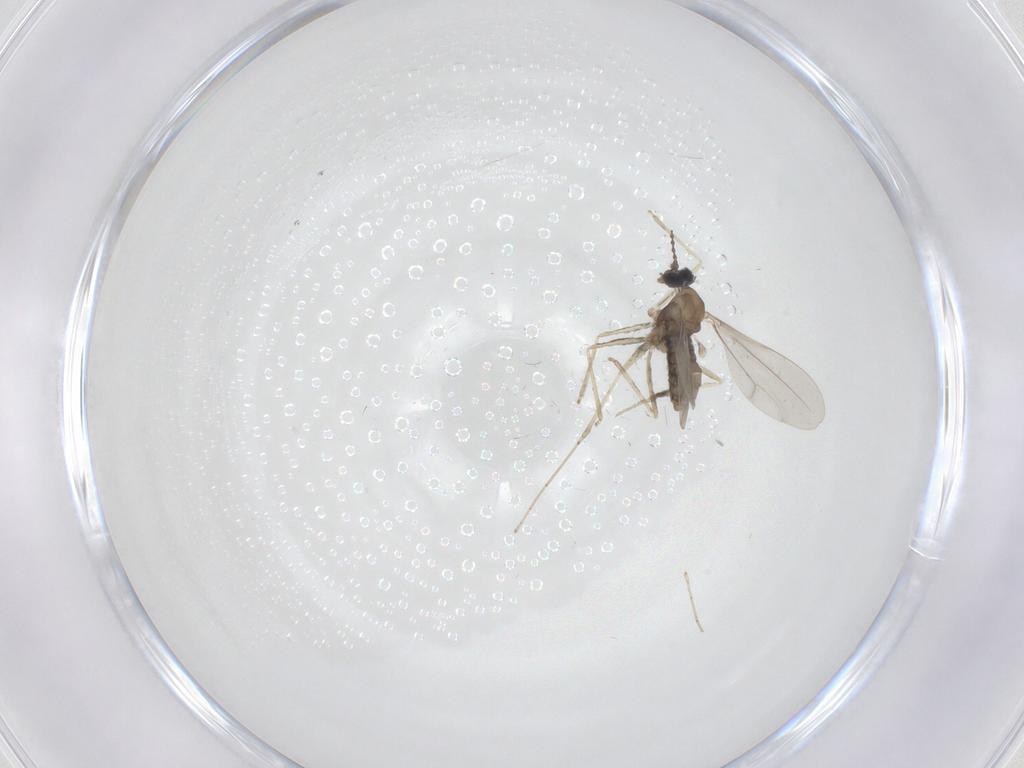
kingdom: Animalia
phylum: Arthropoda
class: Insecta
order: Diptera
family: Cecidomyiidae
